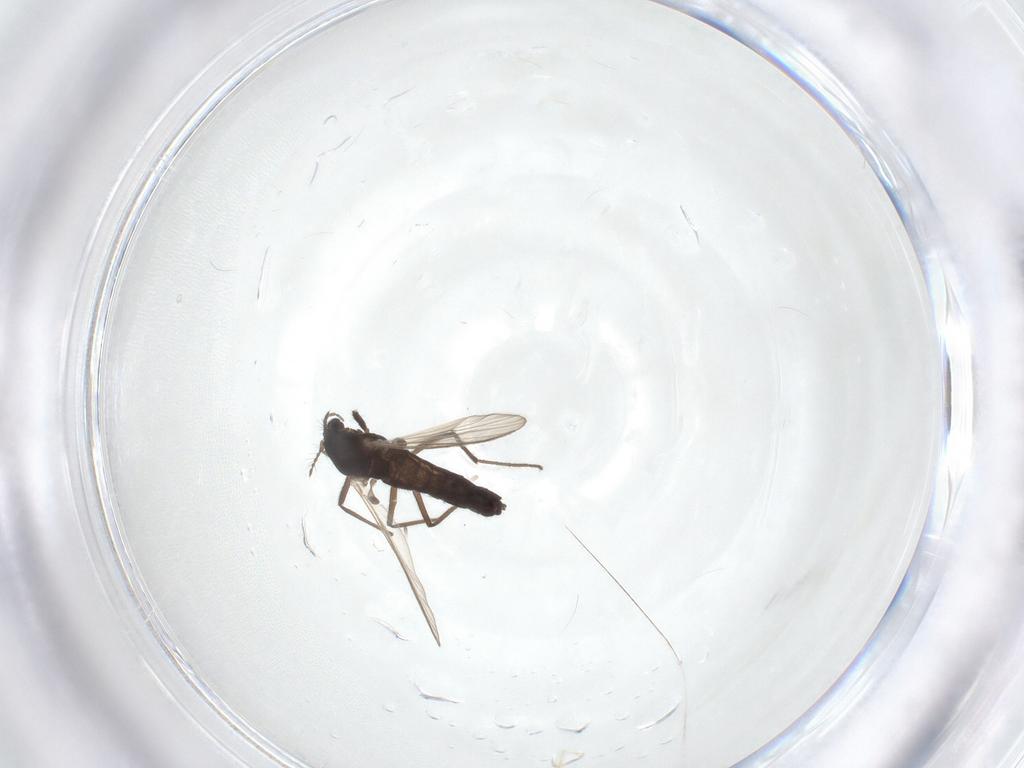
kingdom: Animalia
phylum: Arthropoda
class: Insecta
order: Diptera
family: Chironomidae
